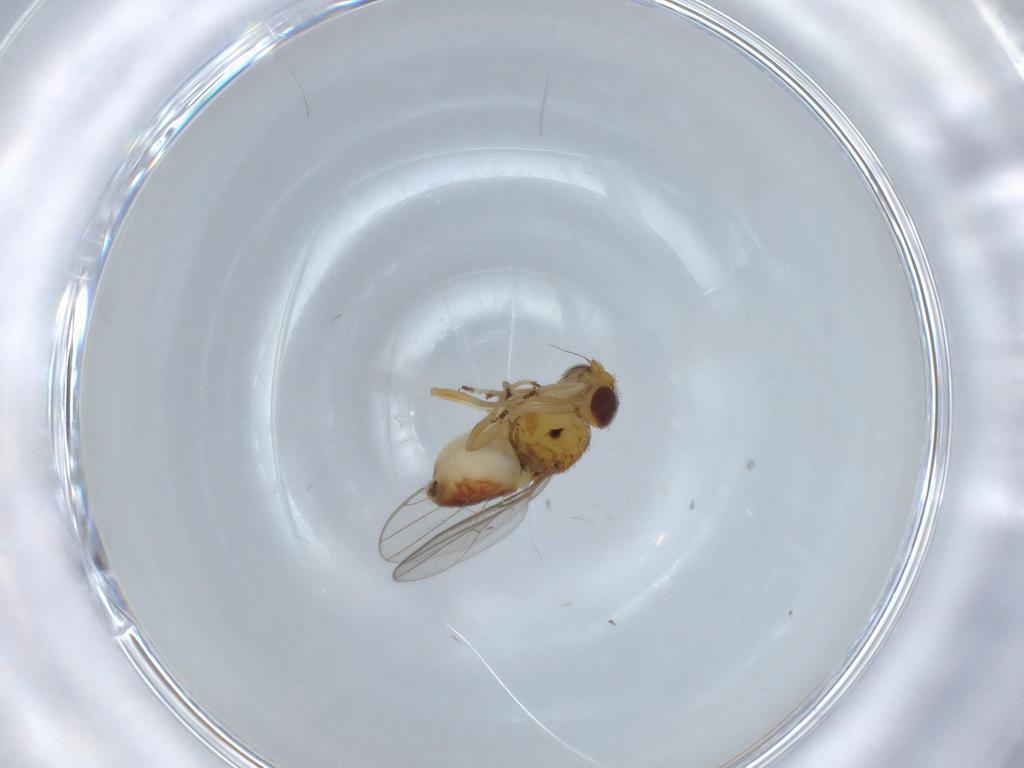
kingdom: Animalia
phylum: Arthropoda
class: Insecta
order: Diptera
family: Chloropidae
